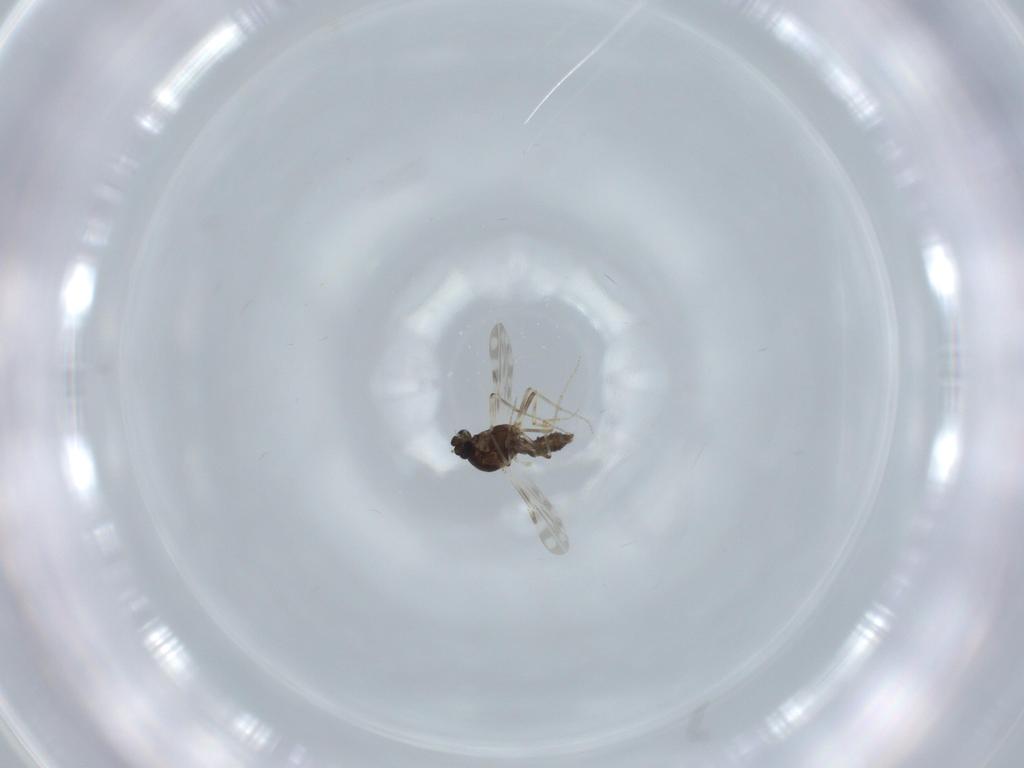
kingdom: Animalia
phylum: Arthropoda
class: Insecta
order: Diptera
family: Ceratopogonidae
